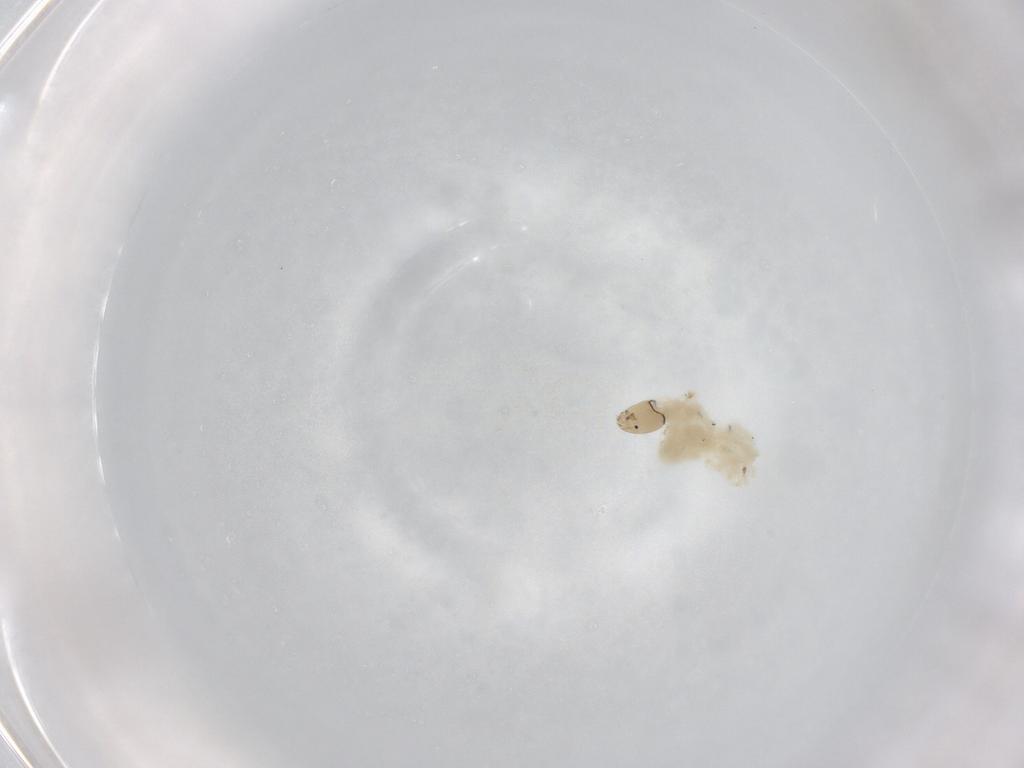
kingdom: Animalia
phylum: Arthropoda
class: Insecta
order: Diptera
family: Chironomidae
